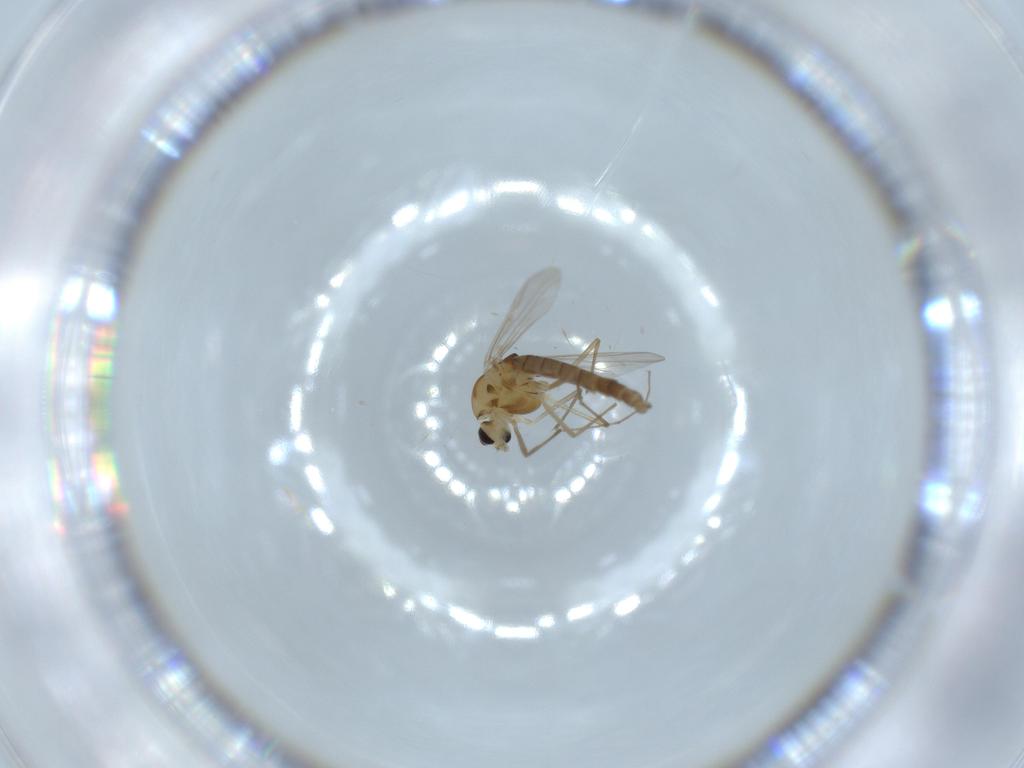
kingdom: Animalia
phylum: Arthropoda
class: Insecta
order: Diptera
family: Chironomidae
